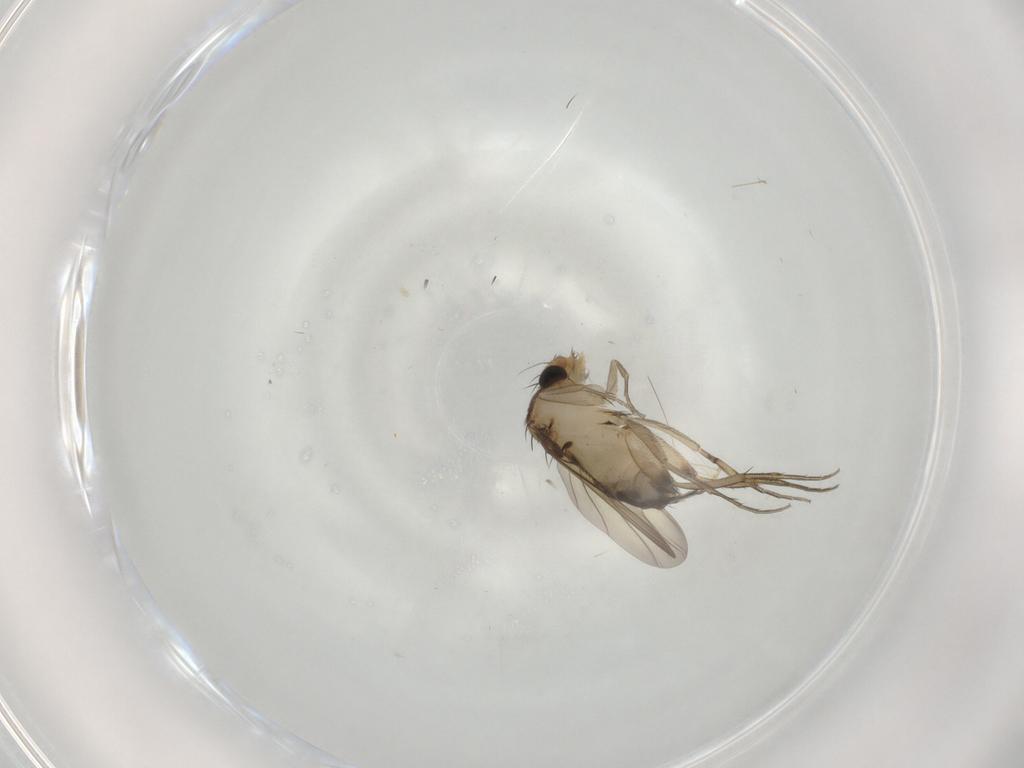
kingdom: Animalia
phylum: Arthropoda
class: Insecta
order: Diptera
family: Phoridae
